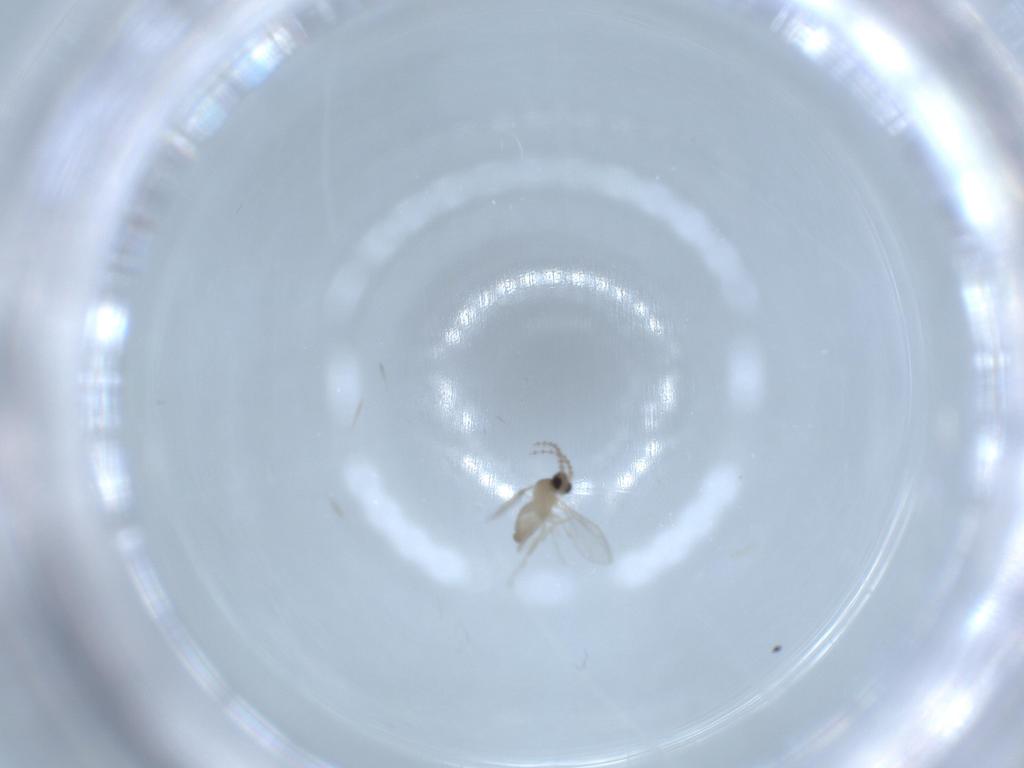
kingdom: Animalia
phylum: Arthropoda
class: Insecta
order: Diptera
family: Cecidomyiidae
